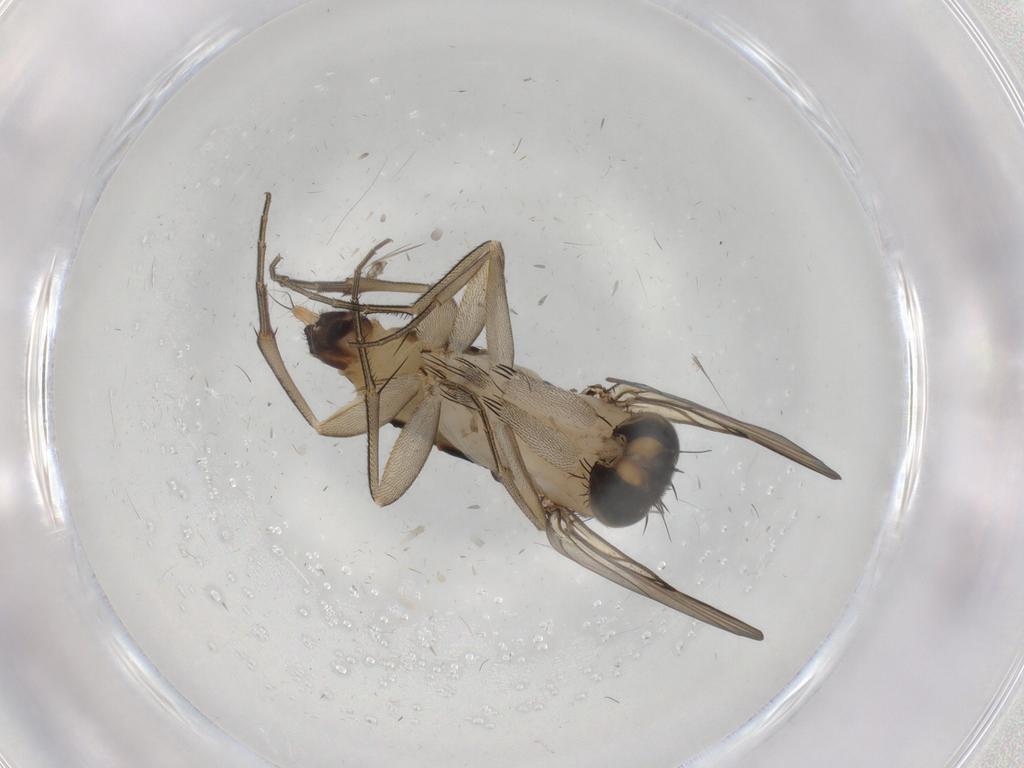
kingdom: Animalia
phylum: Arthropoda
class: Insecta
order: Diptera
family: Phoridae
